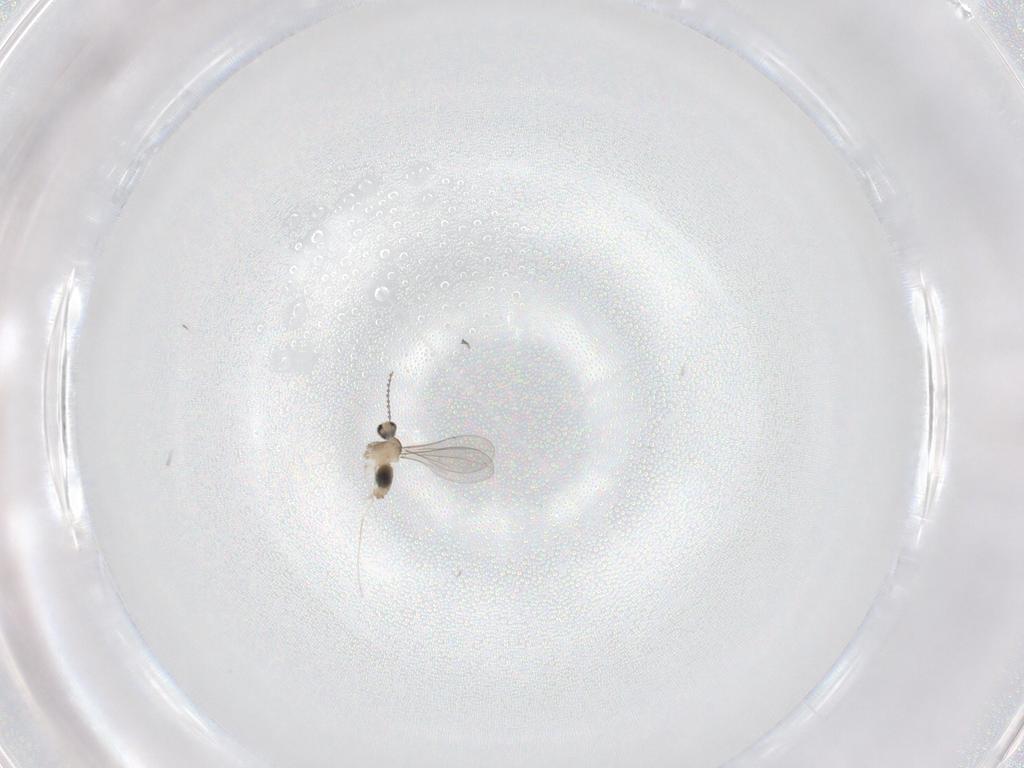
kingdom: Animalia
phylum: Arthropoda
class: Insecta
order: Diptera
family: Cecidomyiidae
